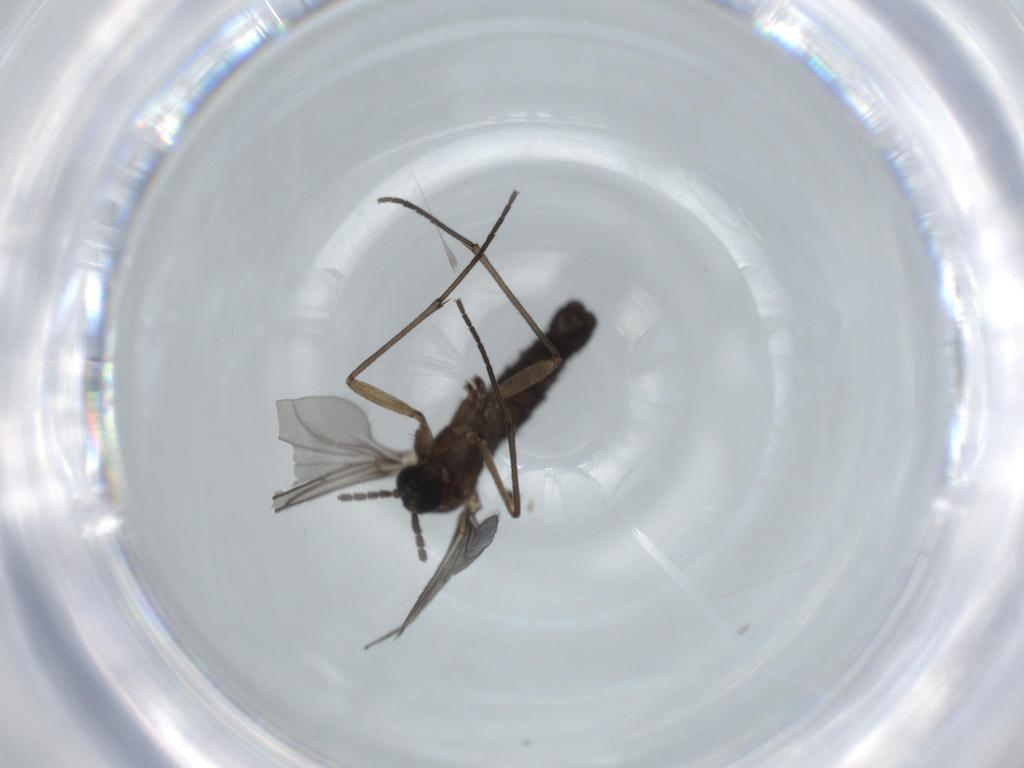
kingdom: Animalia
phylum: Arthropoda
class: Insecta
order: Diptera
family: Sciaridae
